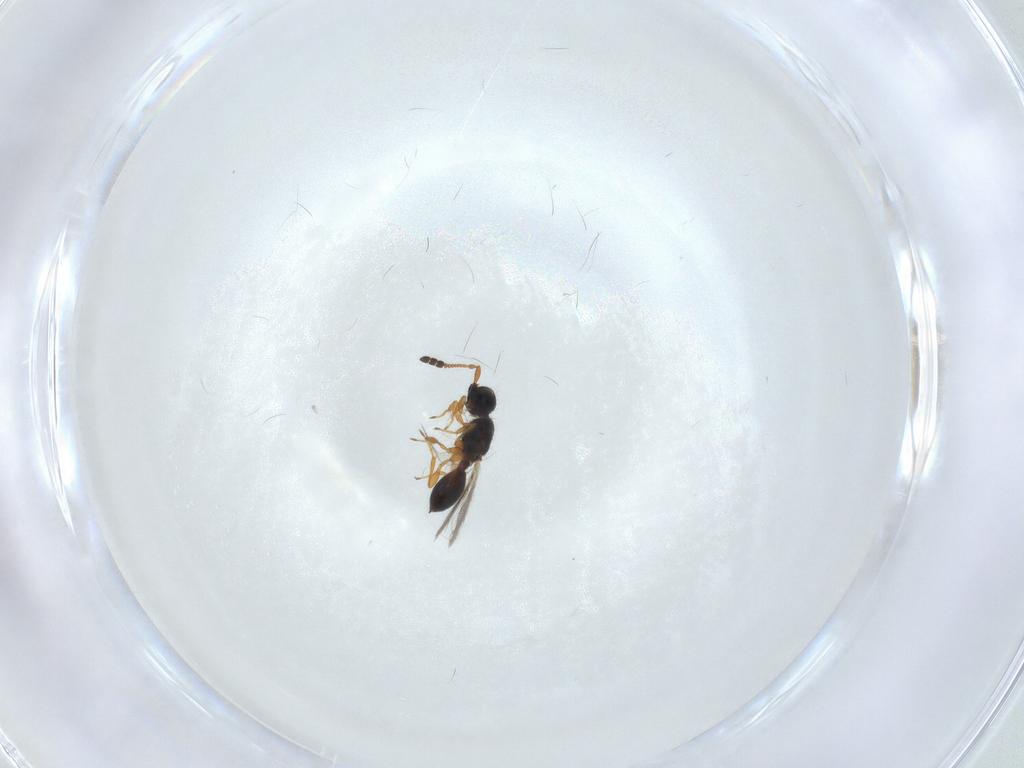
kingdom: Animalia
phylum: Arthropoda
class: Insecta
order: Hymenoptera
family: Diapriidae
